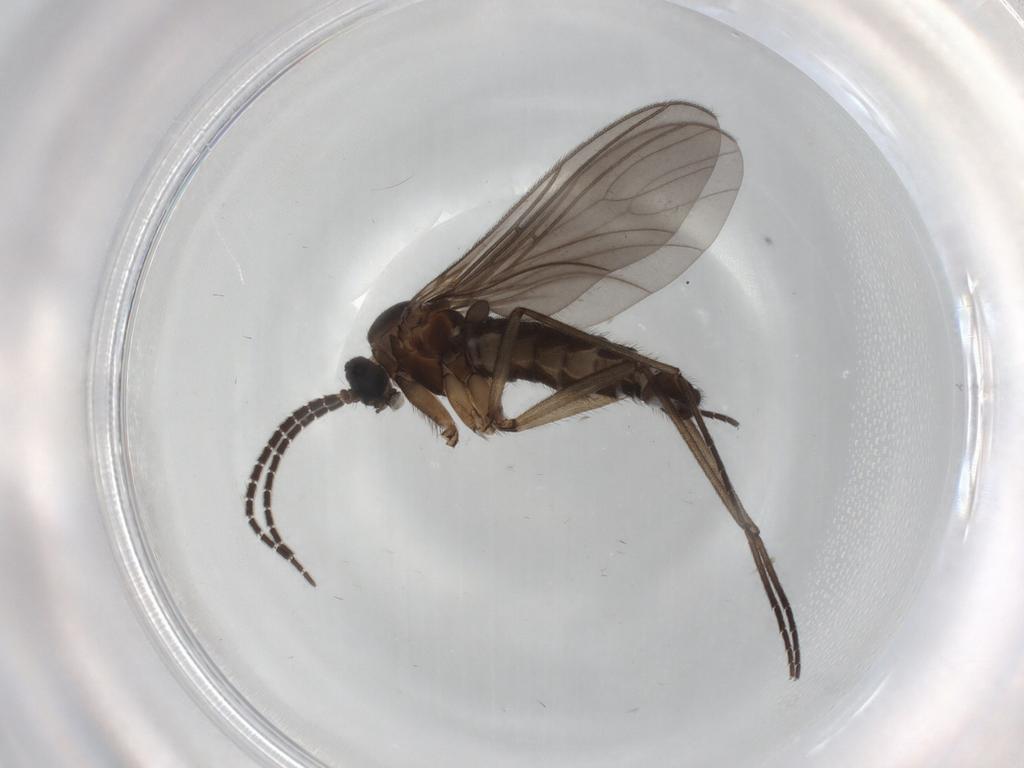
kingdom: Animalia
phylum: Arthropoda
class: Insecta
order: Diptera
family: Sciaridae
